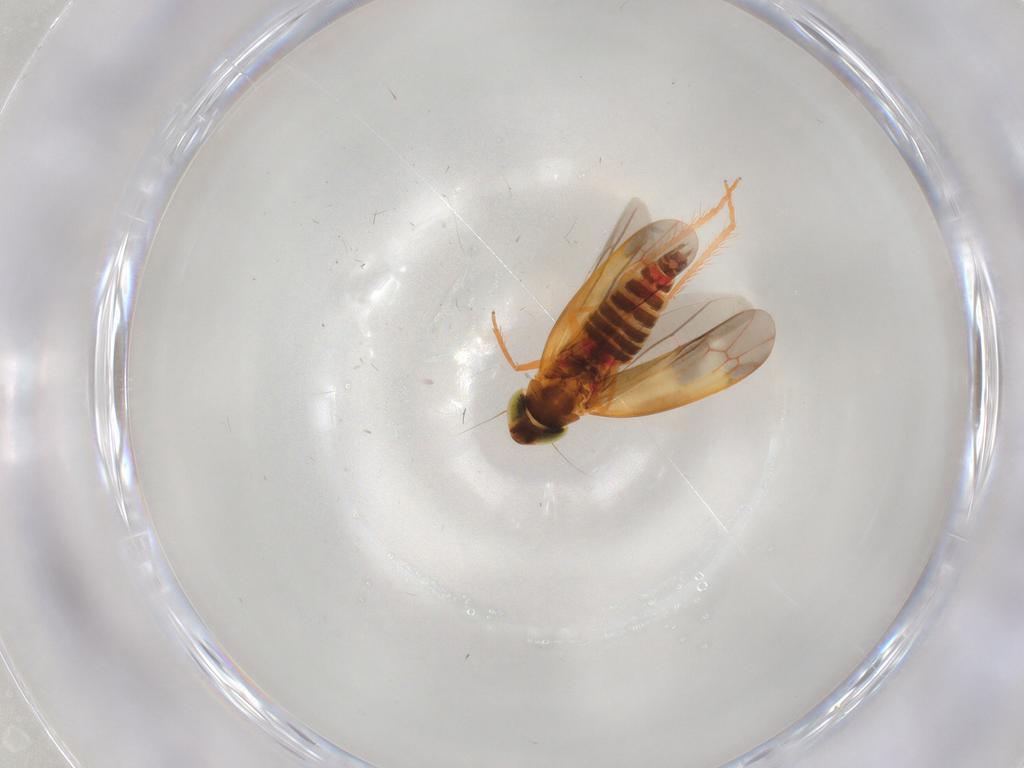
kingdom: Animalia
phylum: Arthropoda
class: Insecta
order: Hemiptera
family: Cicadellidae
